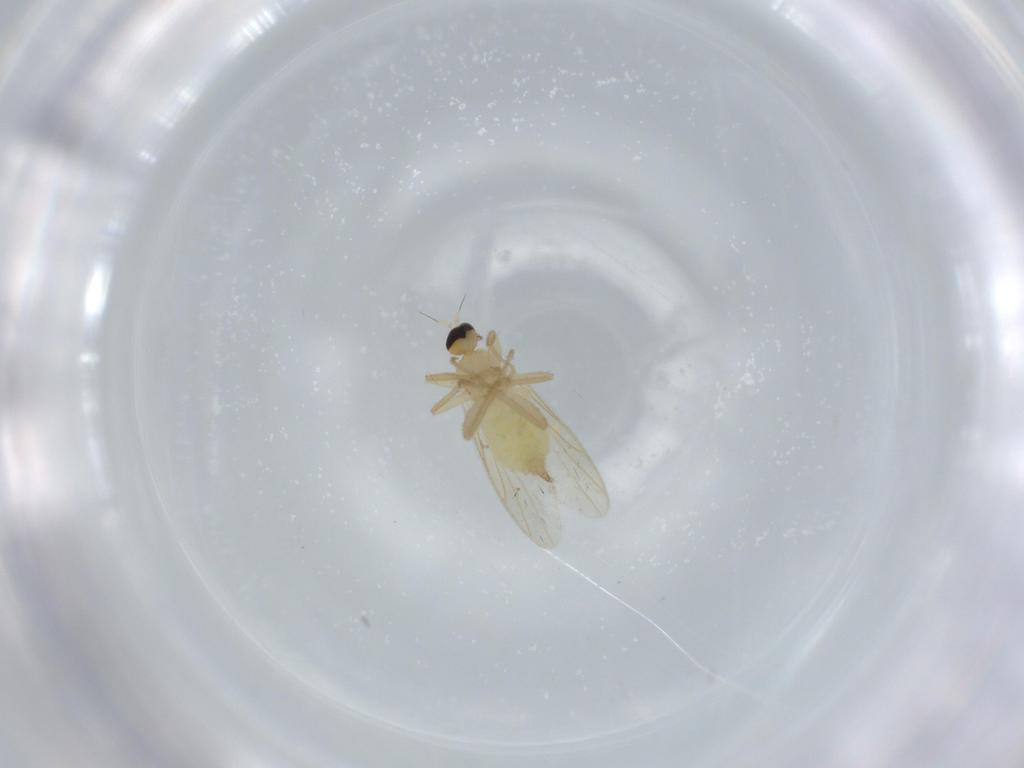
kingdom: Animalia
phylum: Arthropoda
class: Insecta
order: Diptera
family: Hybotidae
